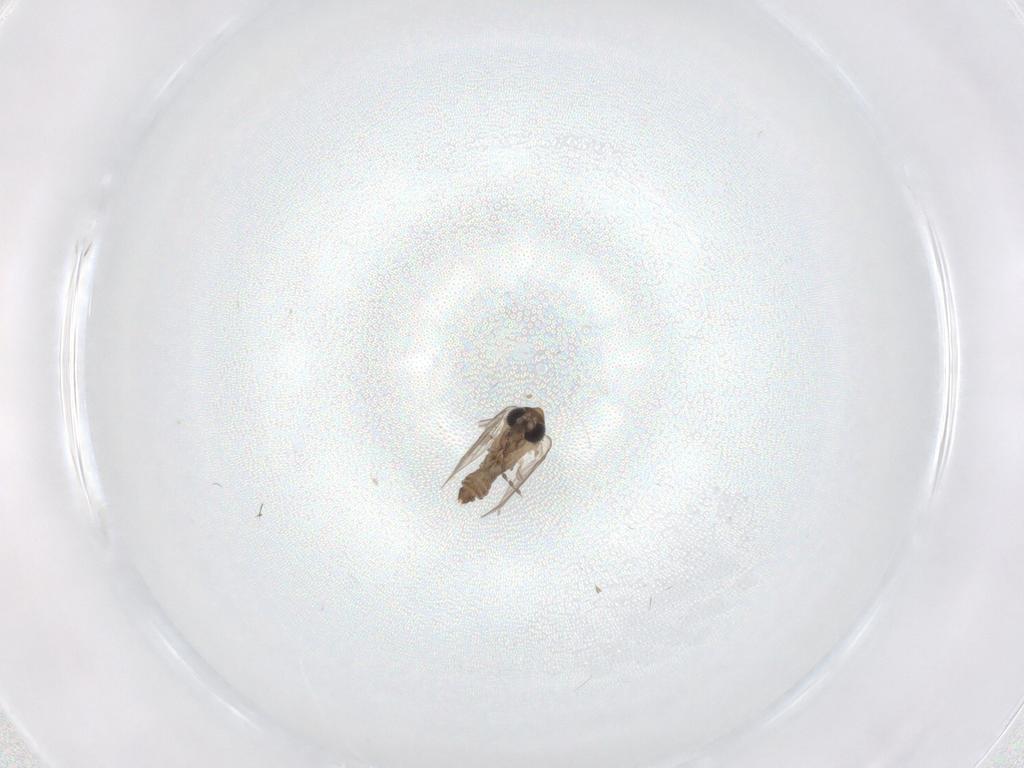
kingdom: Animalia
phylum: Arthropoda
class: Insecta
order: Diptera
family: Psychodidae
